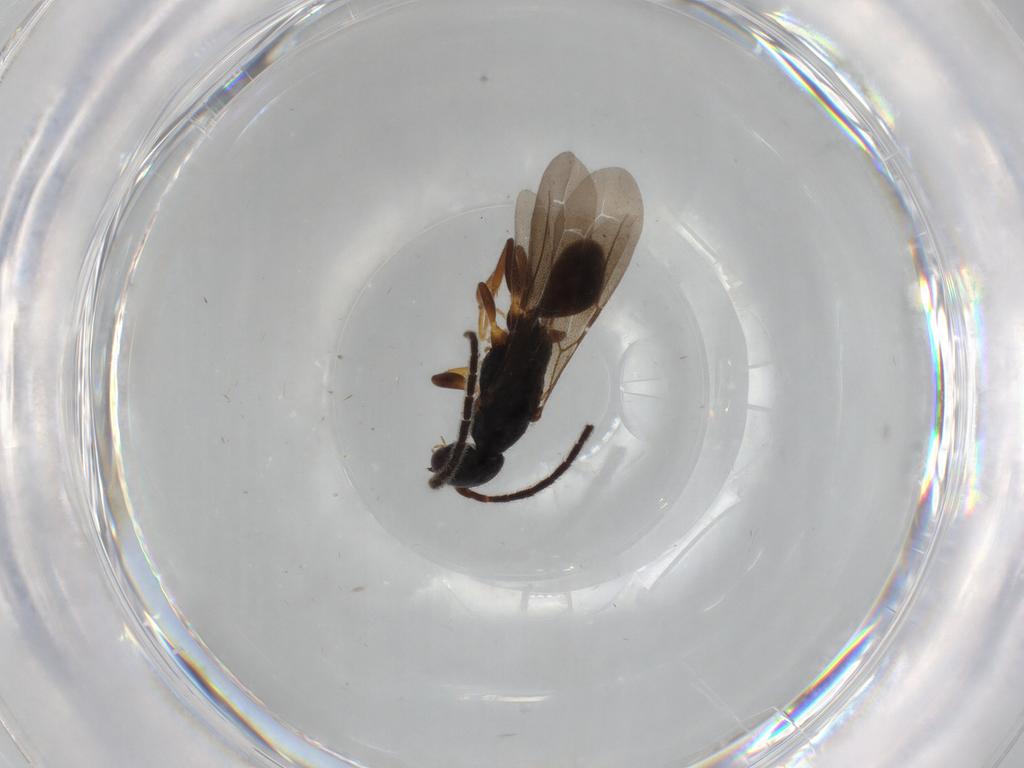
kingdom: Animalia
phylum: Arthropoda
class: Insecta
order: Hymenoptera
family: Bethylidae
